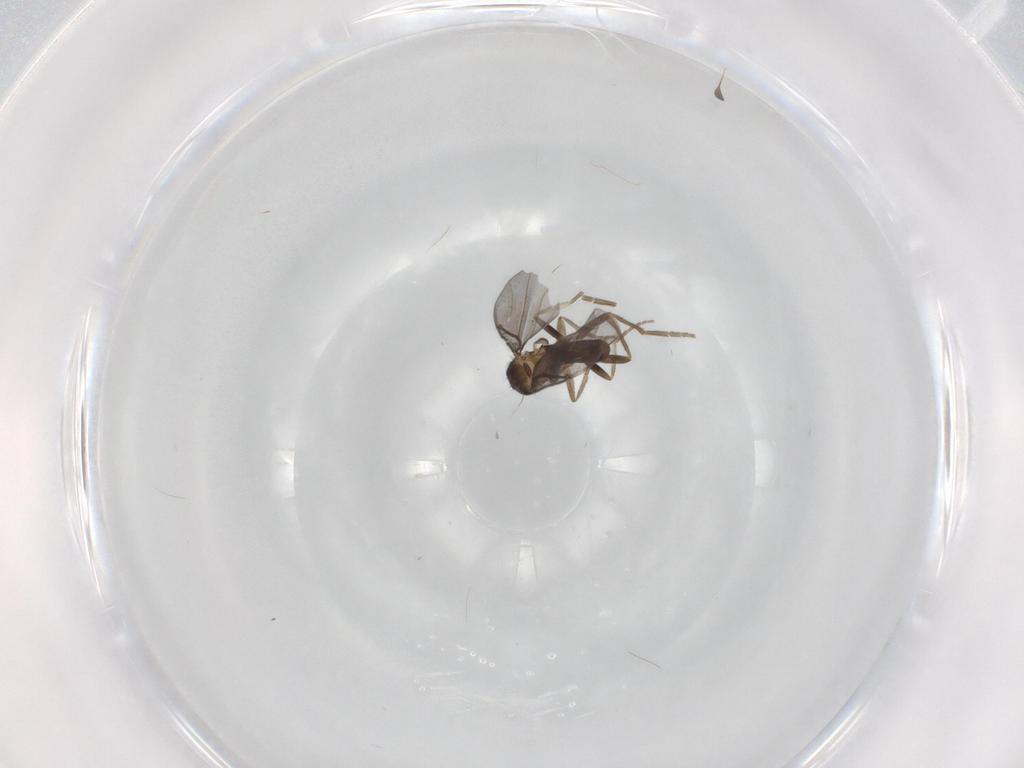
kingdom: Animalia
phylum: Arthropoda
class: Insecta
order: Diptera
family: Phoridae
